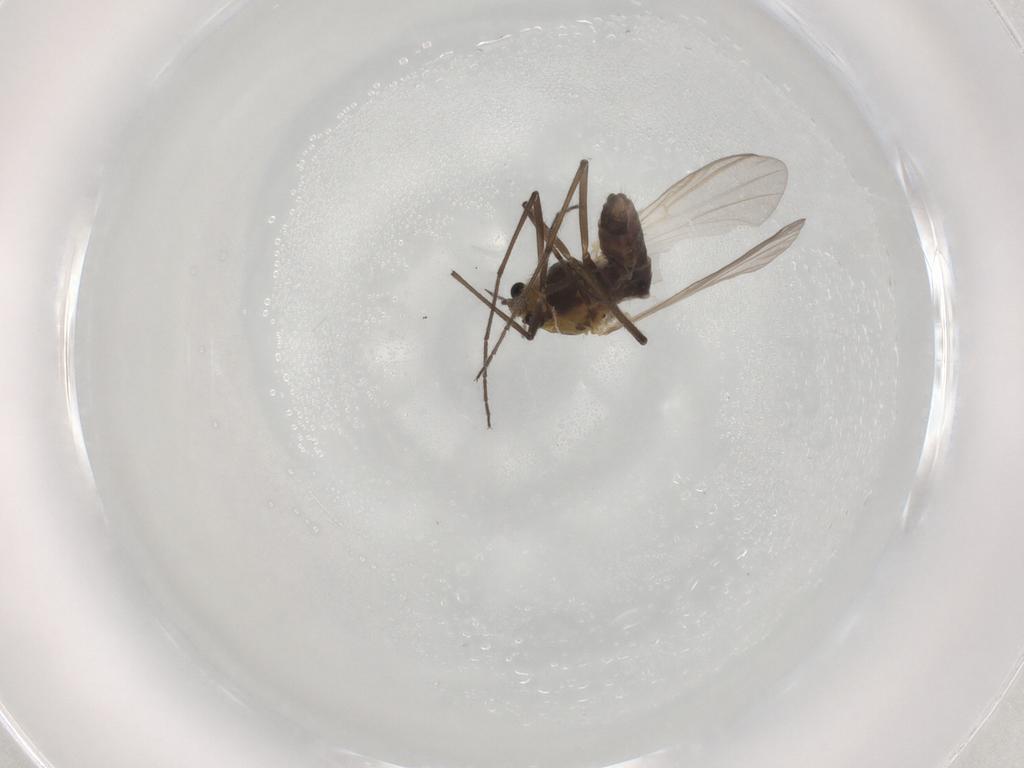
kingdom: Animalia
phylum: Arthropoda
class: Insecta
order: Diptera
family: Chironomidae
